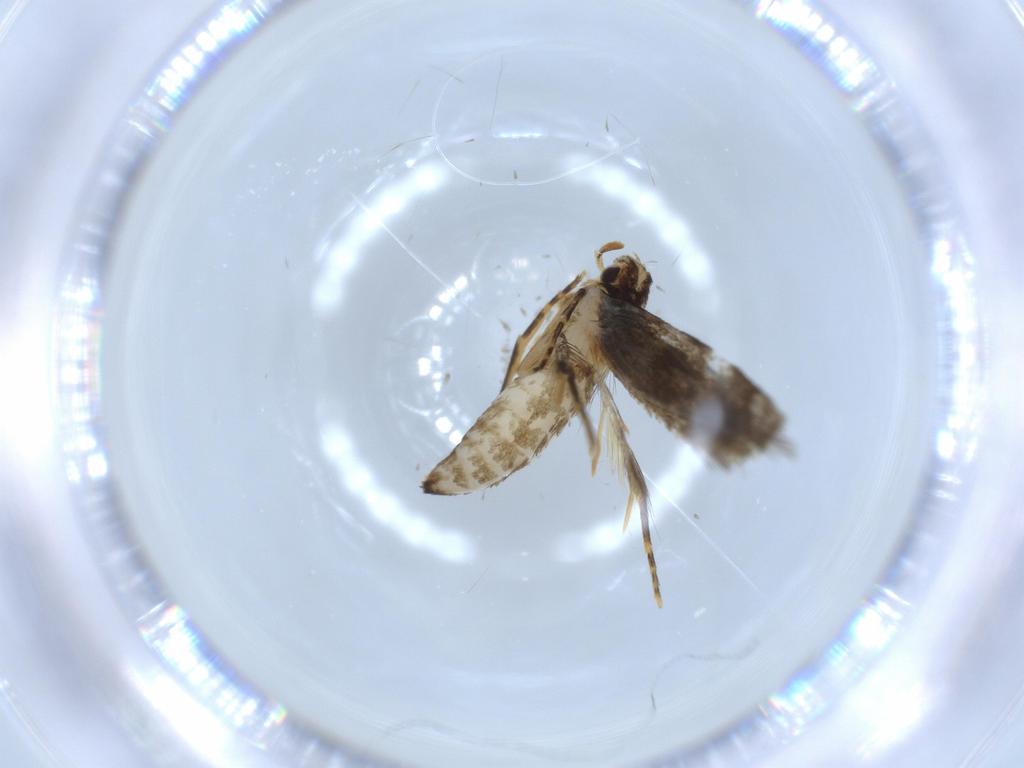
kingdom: Animalia
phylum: Arthropoda
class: Insecta
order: Lepidoptera
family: Tineidae
